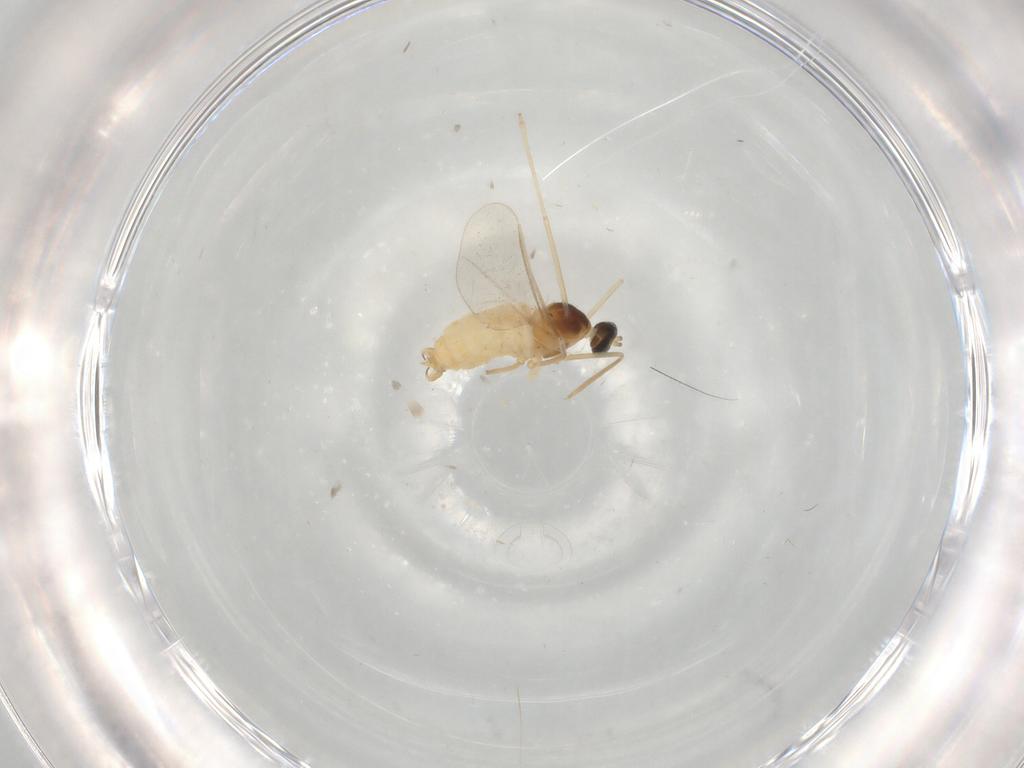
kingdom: Animalia
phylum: Arthropoda
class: Insecta
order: Diptera
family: Cecidomyiidae
